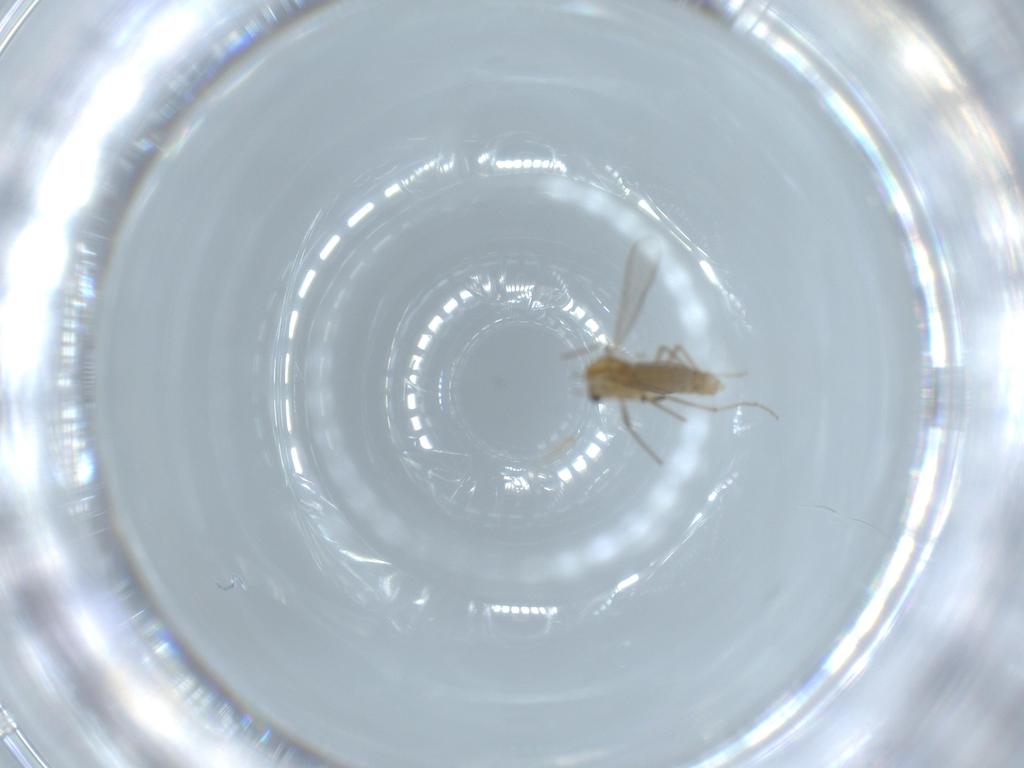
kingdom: Animalia
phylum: Arthropoda
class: Insecta
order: Diptera
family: Chironomidae
